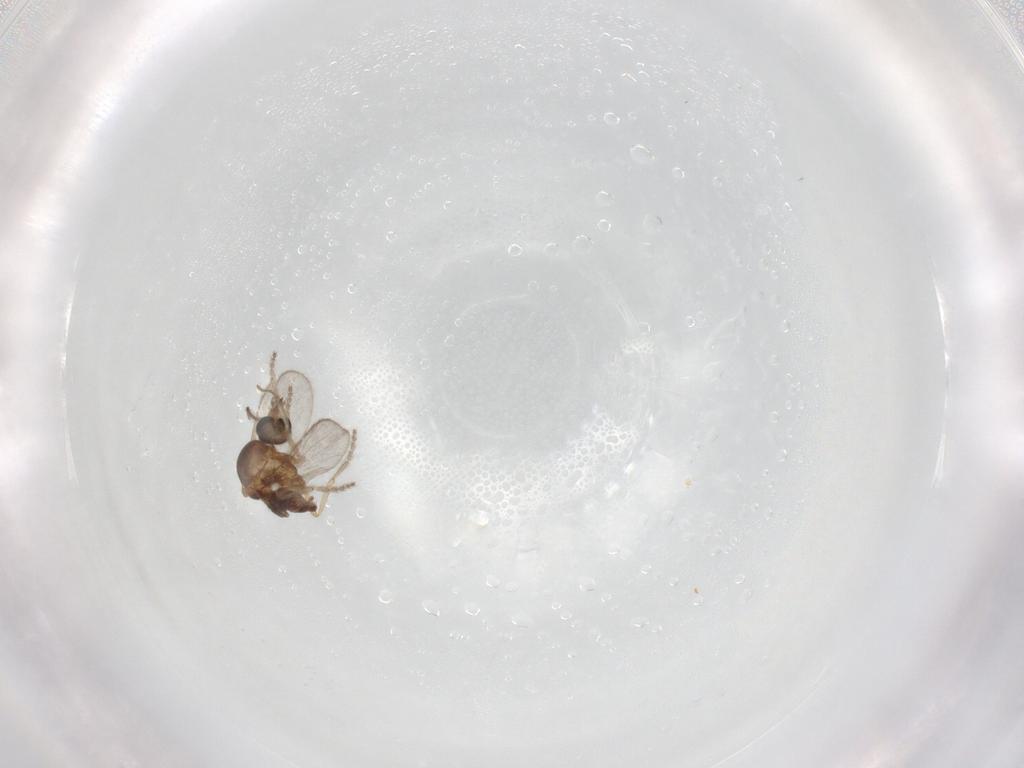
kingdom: Animalia
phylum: Arthropoda
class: Insecta
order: Diptera
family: Ceratopogonidae
